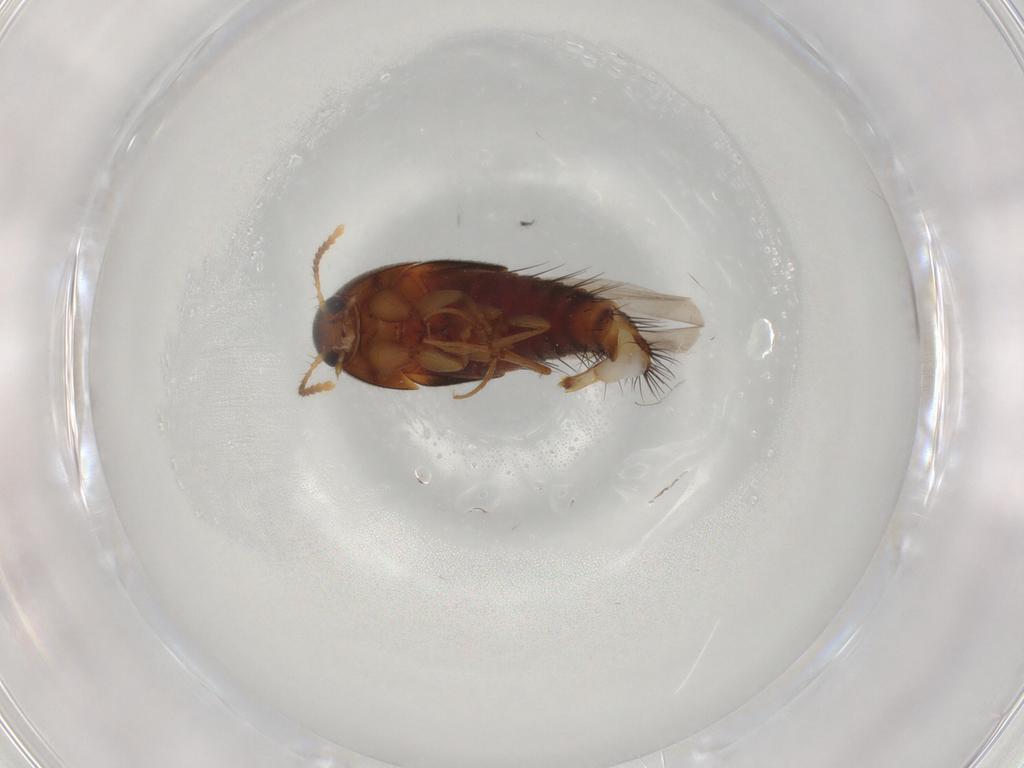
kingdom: Animalia
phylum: Arthropoda
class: Insecta
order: Coleoptera
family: Staphylinidae
